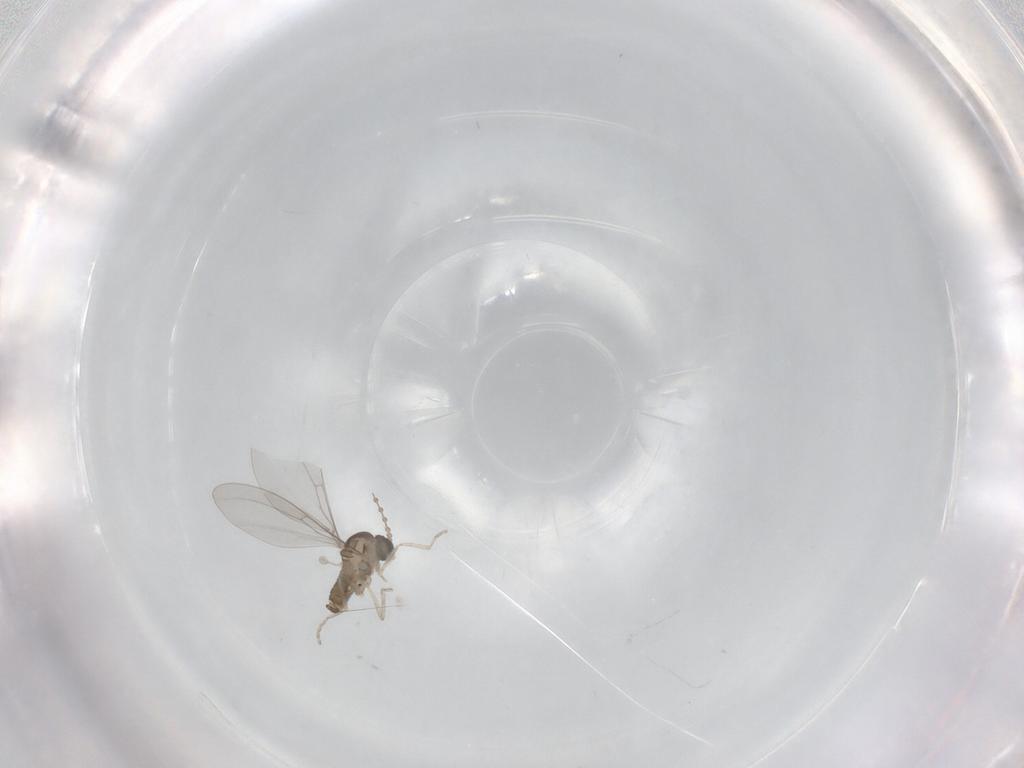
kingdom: Animalia
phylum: Arthropoda
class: Insecta
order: Diptera
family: Cecidomyiidae
